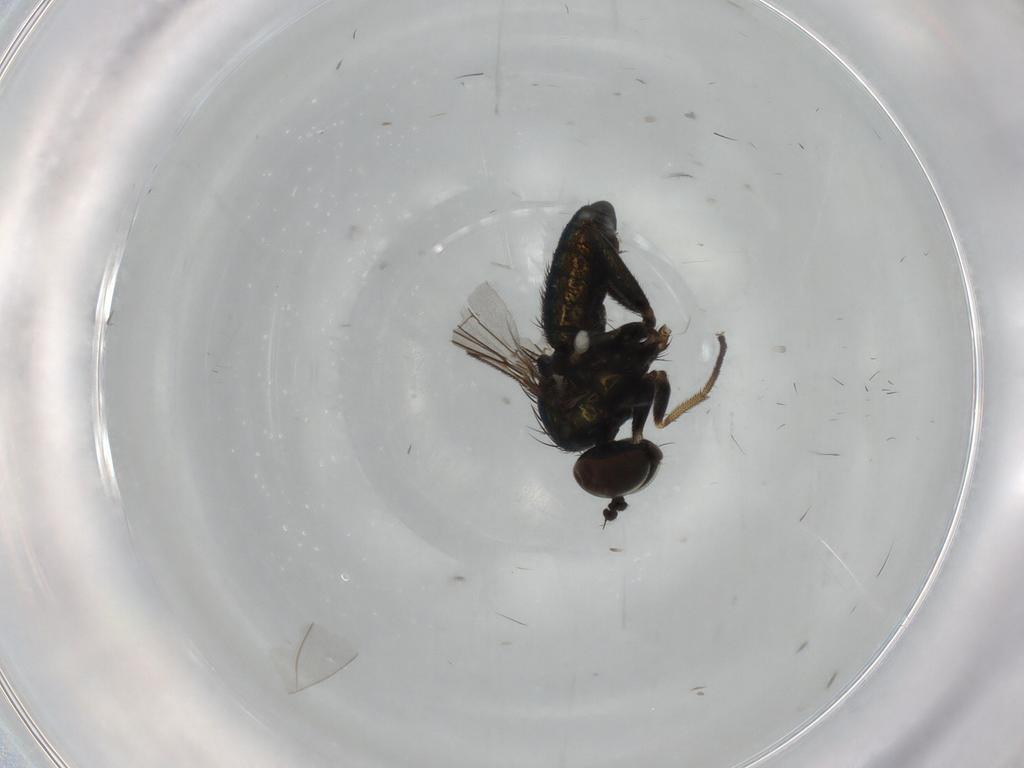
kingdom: Animalia
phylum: Arthropoda
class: Insecta
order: Diptera
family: Dolichopodidae
